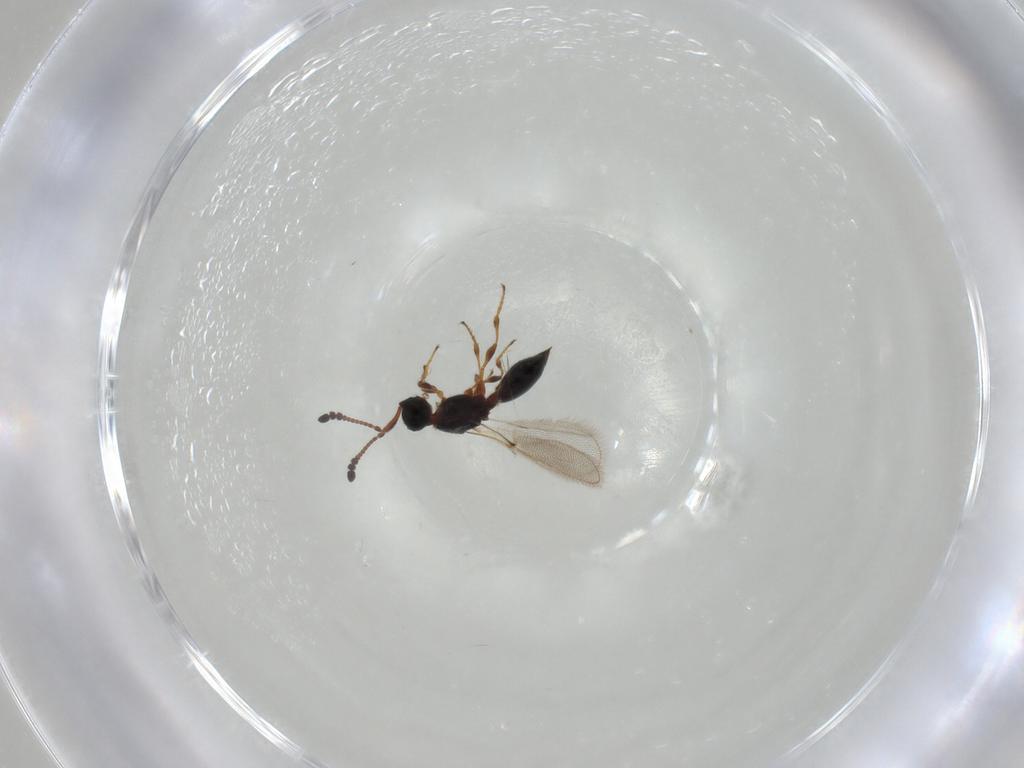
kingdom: Animalia
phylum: Arthropoda
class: Insecta
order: Hymenoptera
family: Diapriidae
